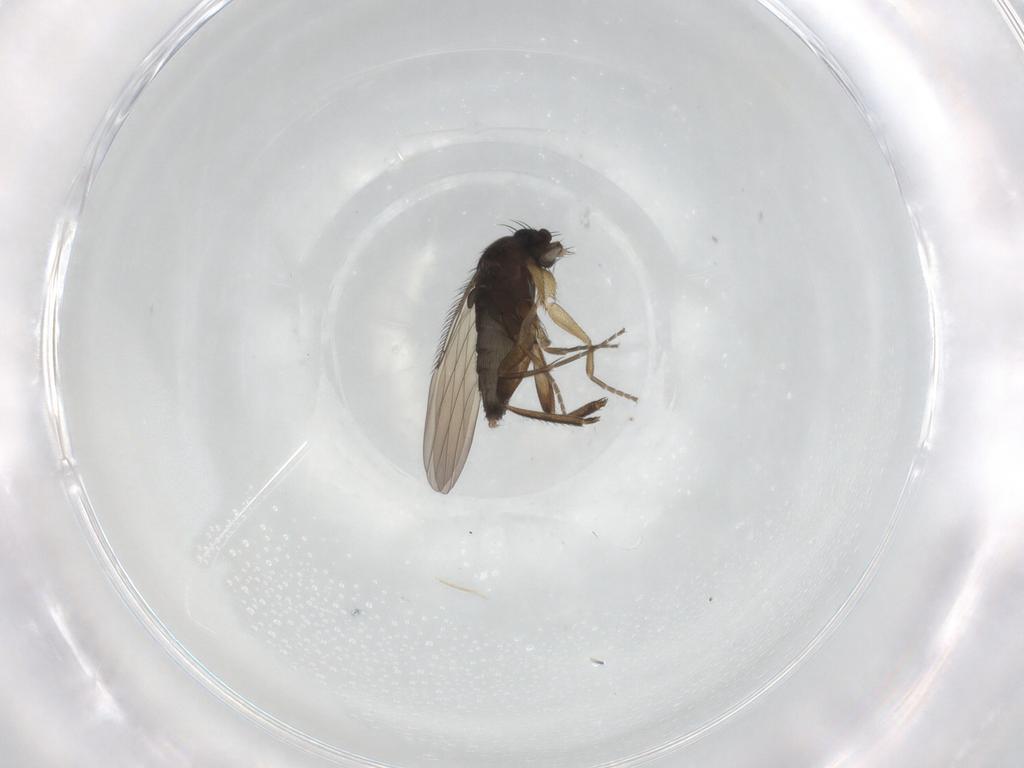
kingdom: Animalia
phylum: Arthropoda
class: Insecta
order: Diptera
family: Phoridae
